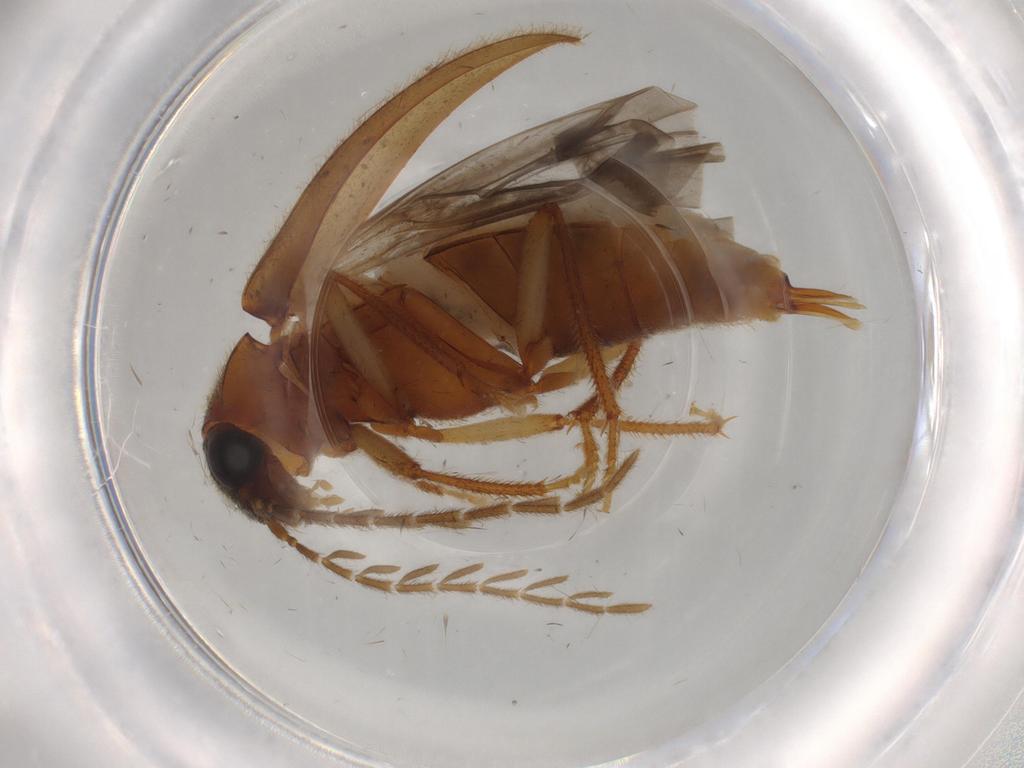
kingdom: Animalia
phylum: Arthropoda
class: Insecta
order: Coleoptera
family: Ptilodactylidae
